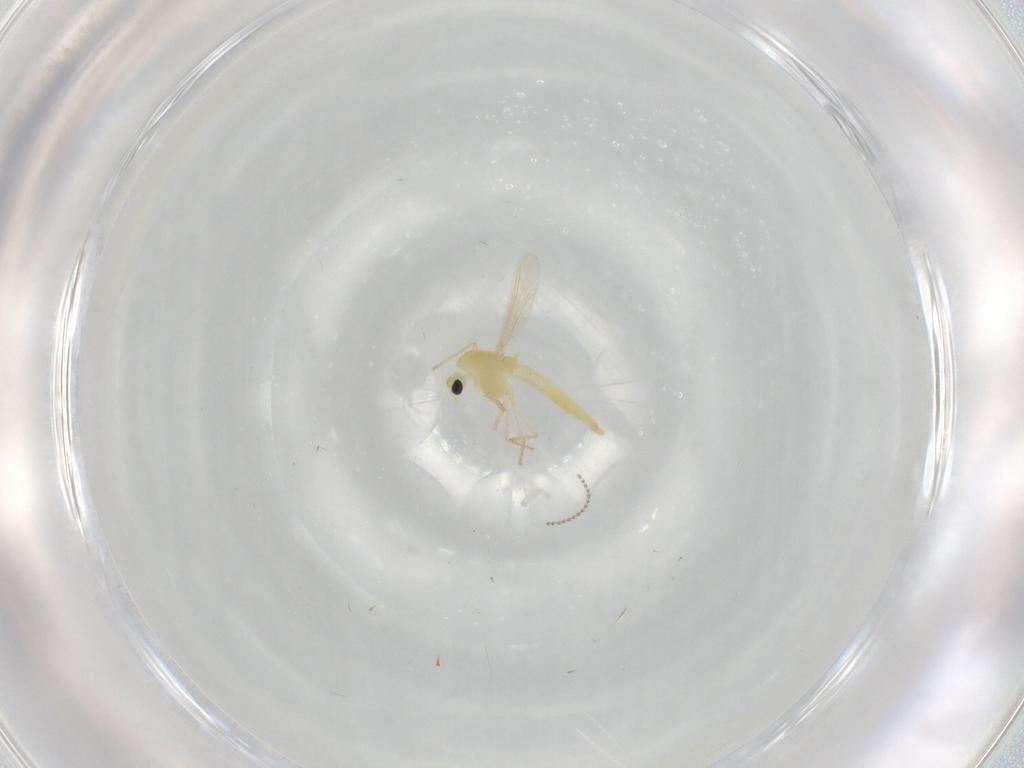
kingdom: Animalia
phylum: Arthropoda
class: Insecta
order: Diptera
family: Chironomidae
